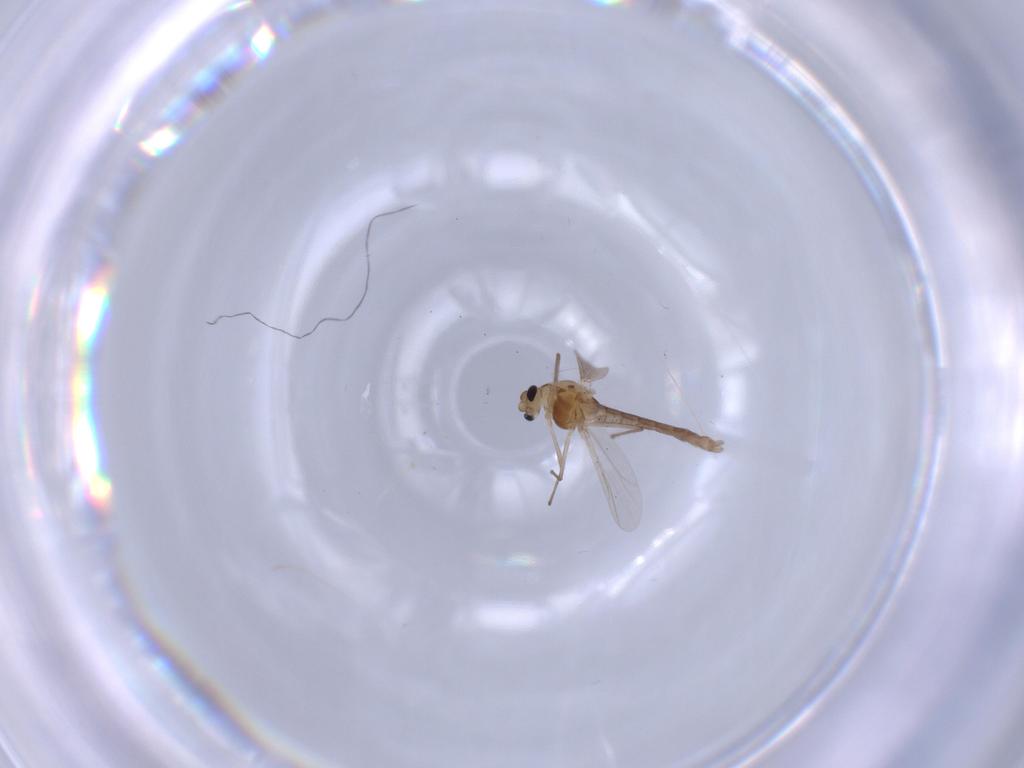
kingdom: Animalia
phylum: Arthropoda
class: Insecta
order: Diptera
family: Chironomidae
